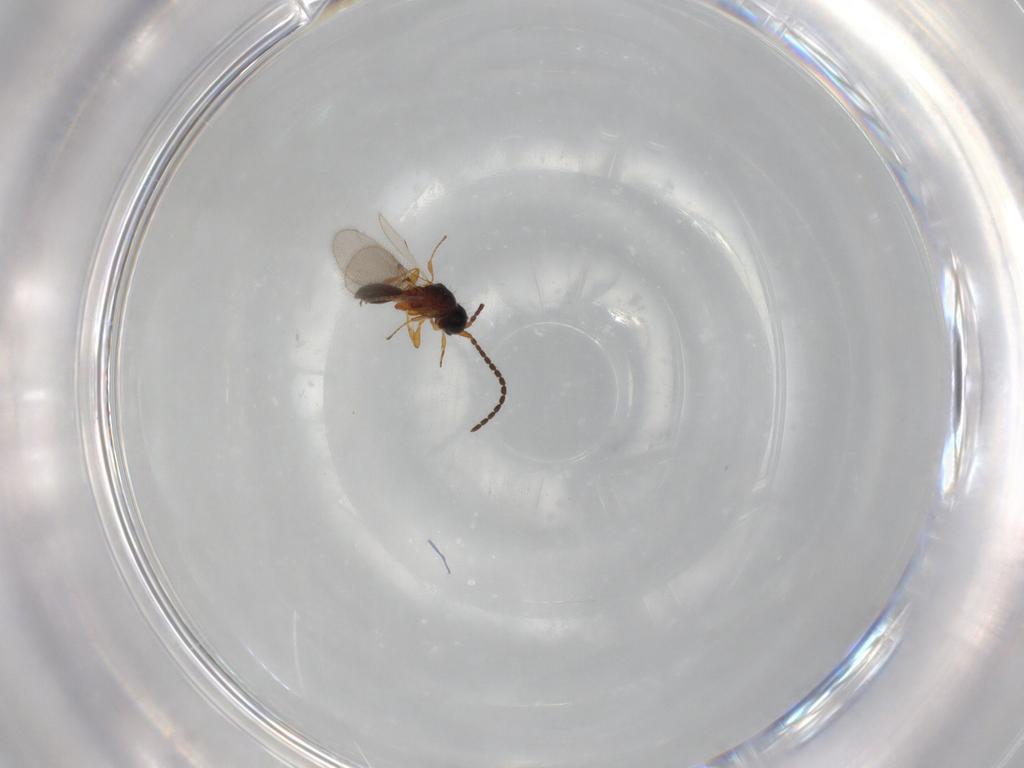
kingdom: Animalia
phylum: Arthropoda
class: Insecta
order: Hymenoptera
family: Diapriidae
